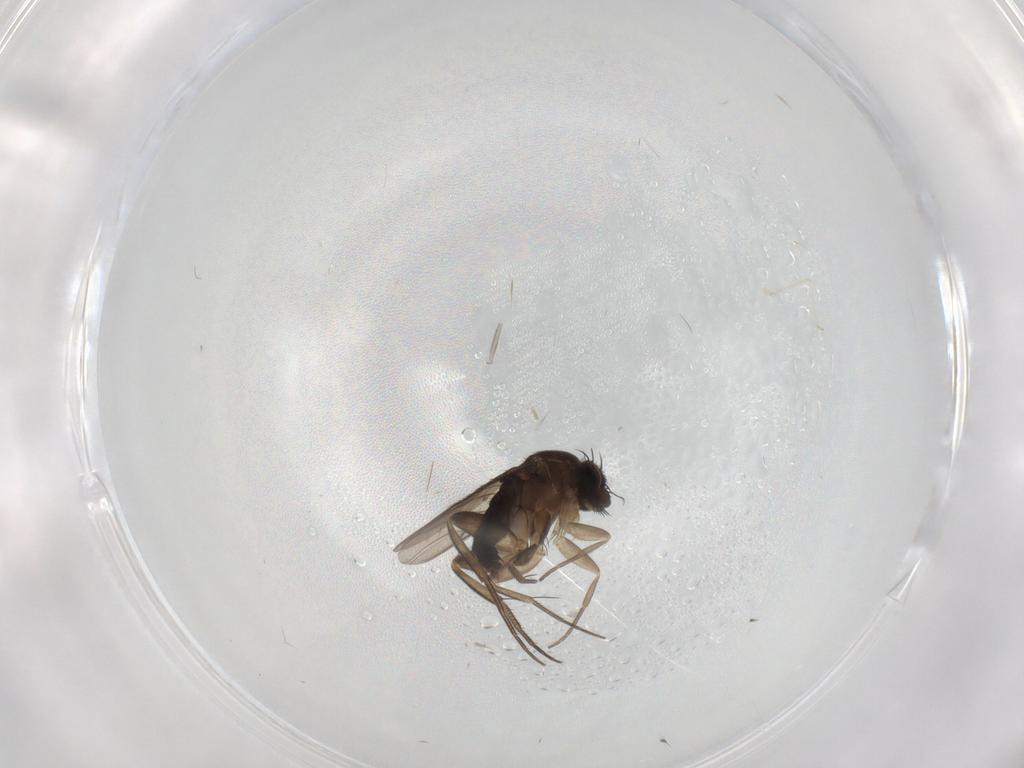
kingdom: Animalia
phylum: Arthropoda
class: Insecta
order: Diptera
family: Phoridae
